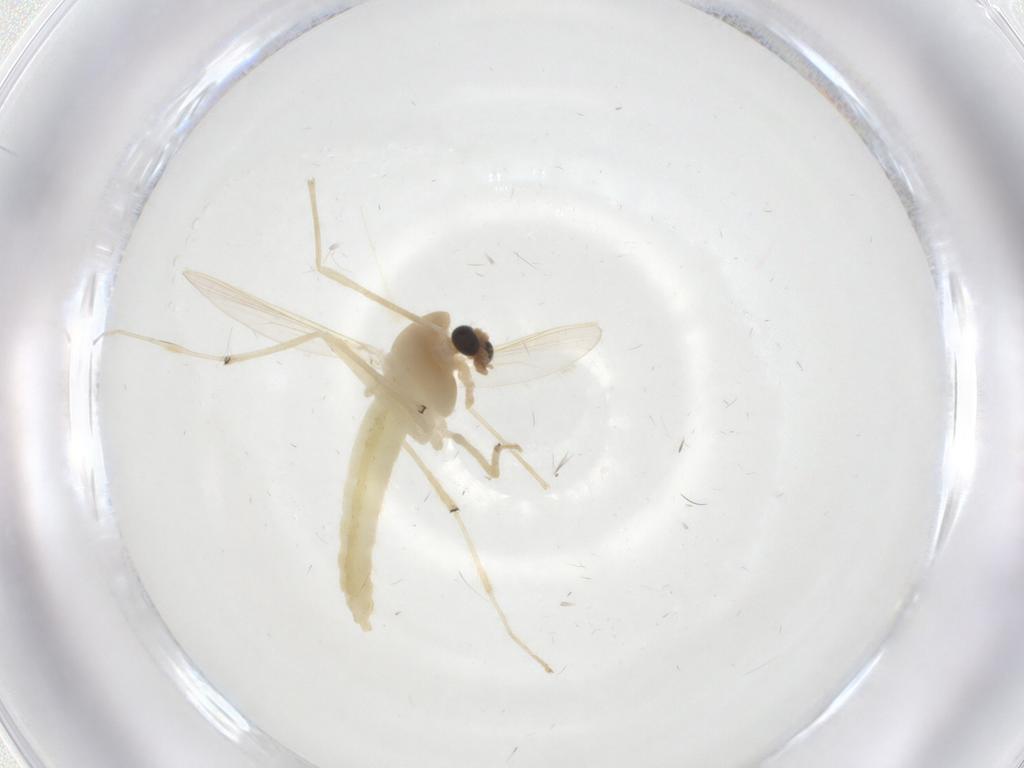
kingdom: Animalia
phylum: Arthropoda
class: Insecta
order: Diptera
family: Chironomidae
